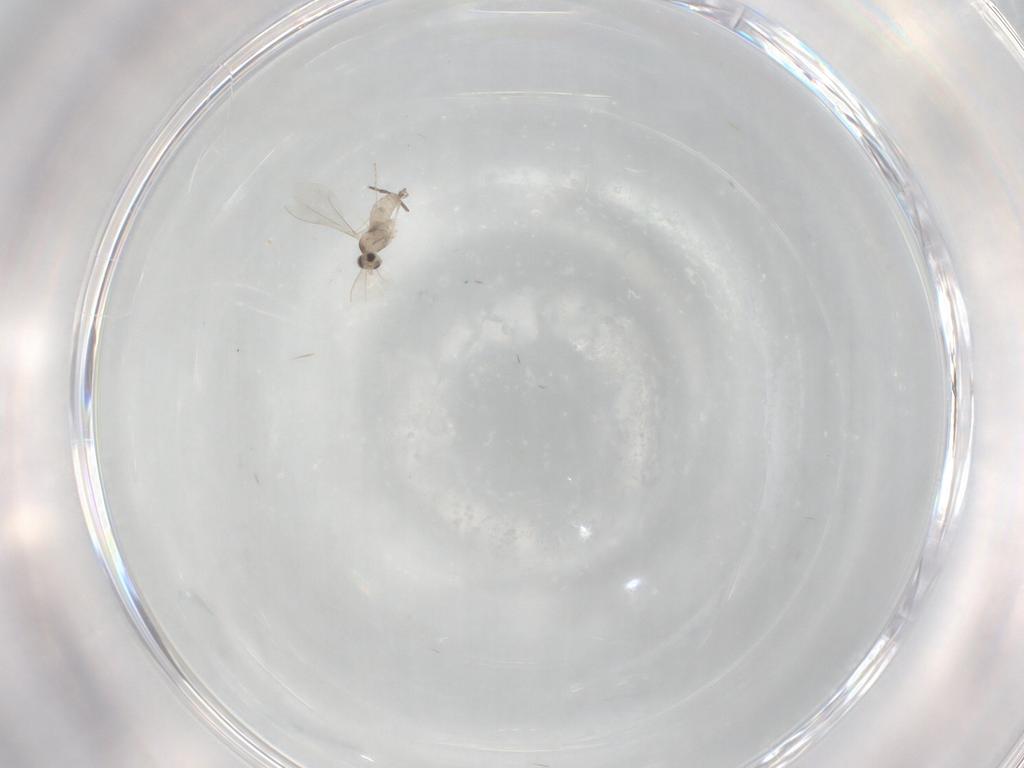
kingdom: Animalia
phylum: Arthropoda
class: Insecta
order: Diptera
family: Cecidomyiidae
